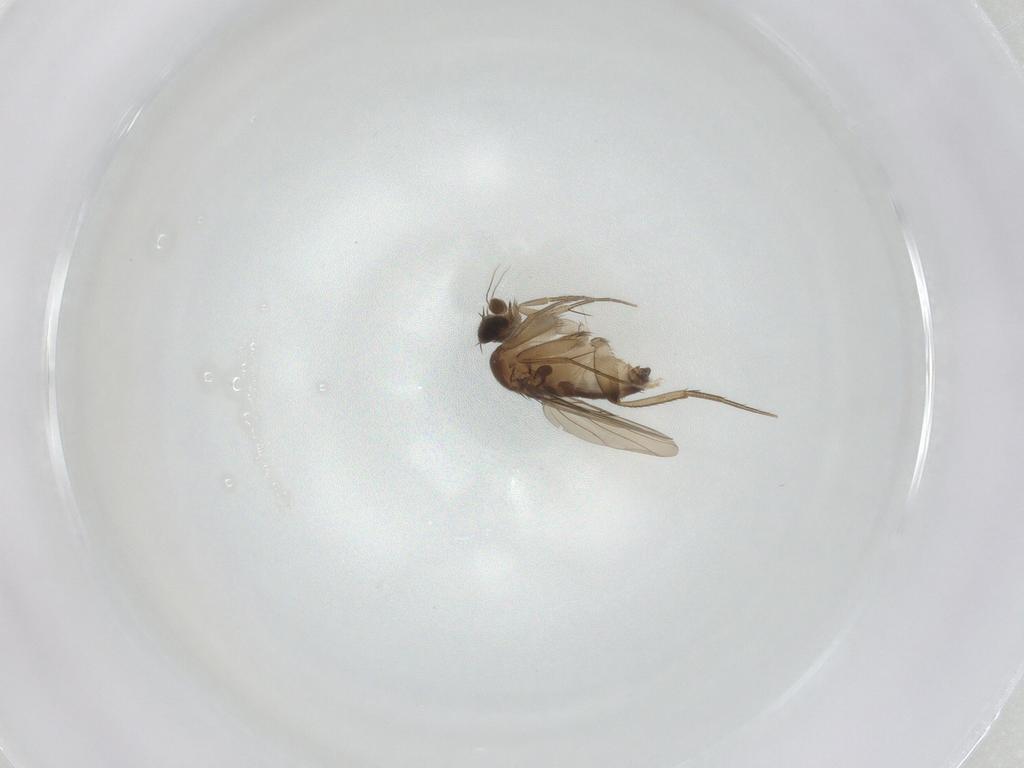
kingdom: Animalia
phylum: Arthropoda
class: Insecta
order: Diptera
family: Phoridae
